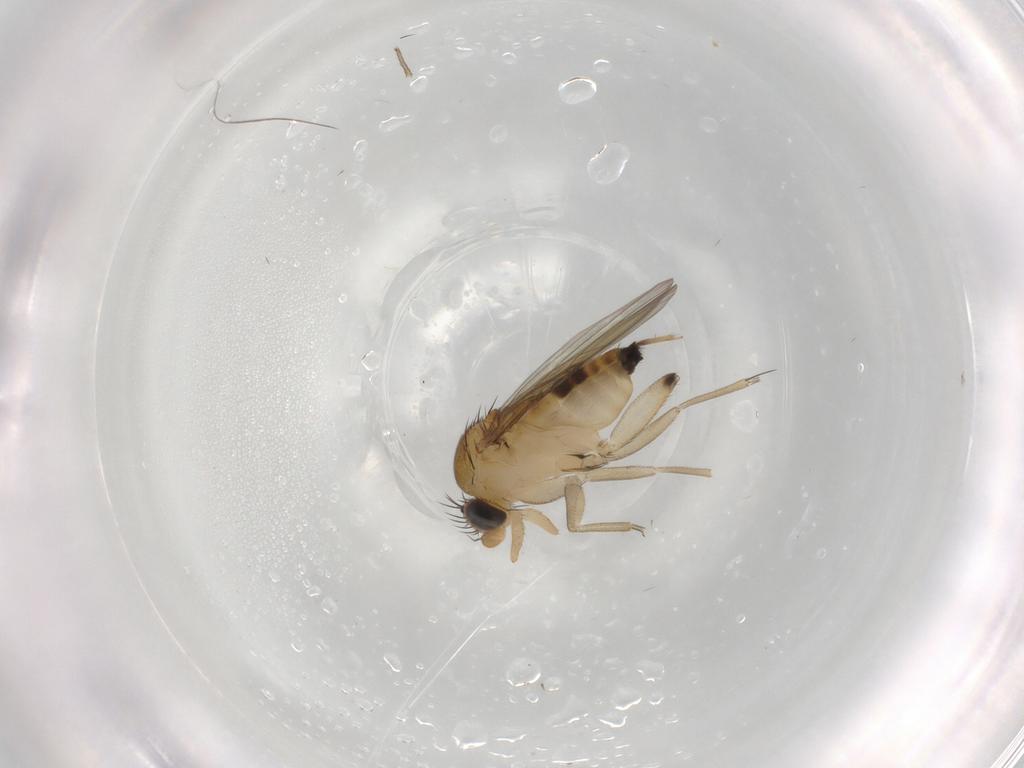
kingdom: Animalia
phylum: Arthropoda
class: Insecta
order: Diptera
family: Phoridae
